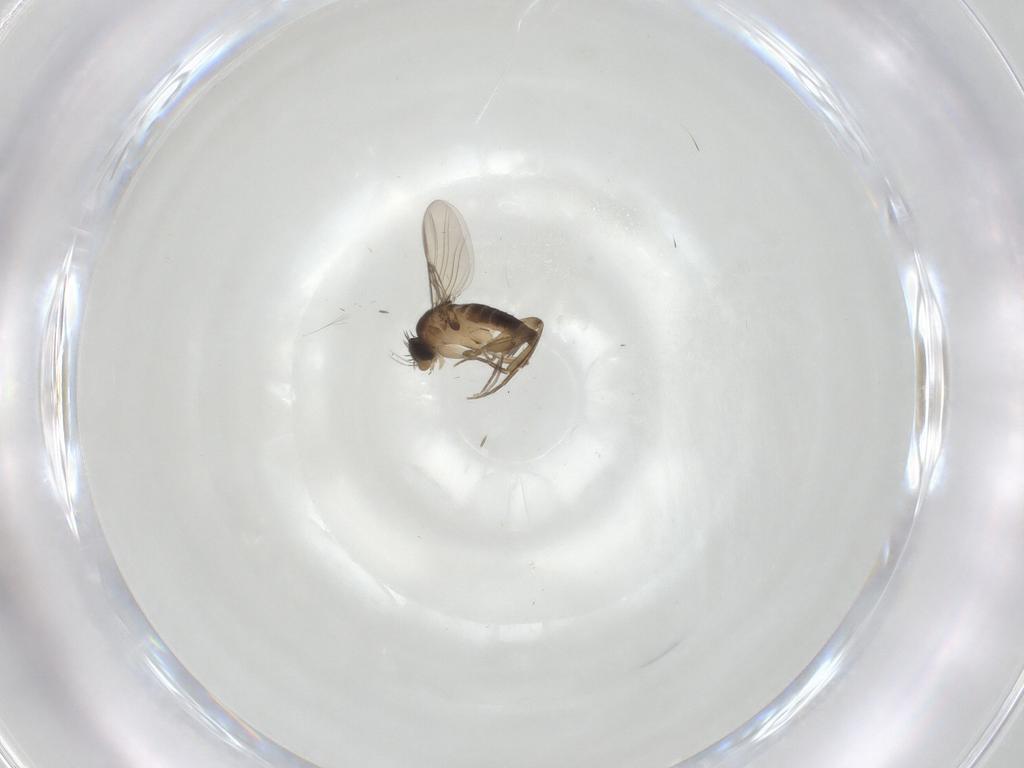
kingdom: Animalia
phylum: Arthropoda
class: Insecta
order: Diptera
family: Phoridae
